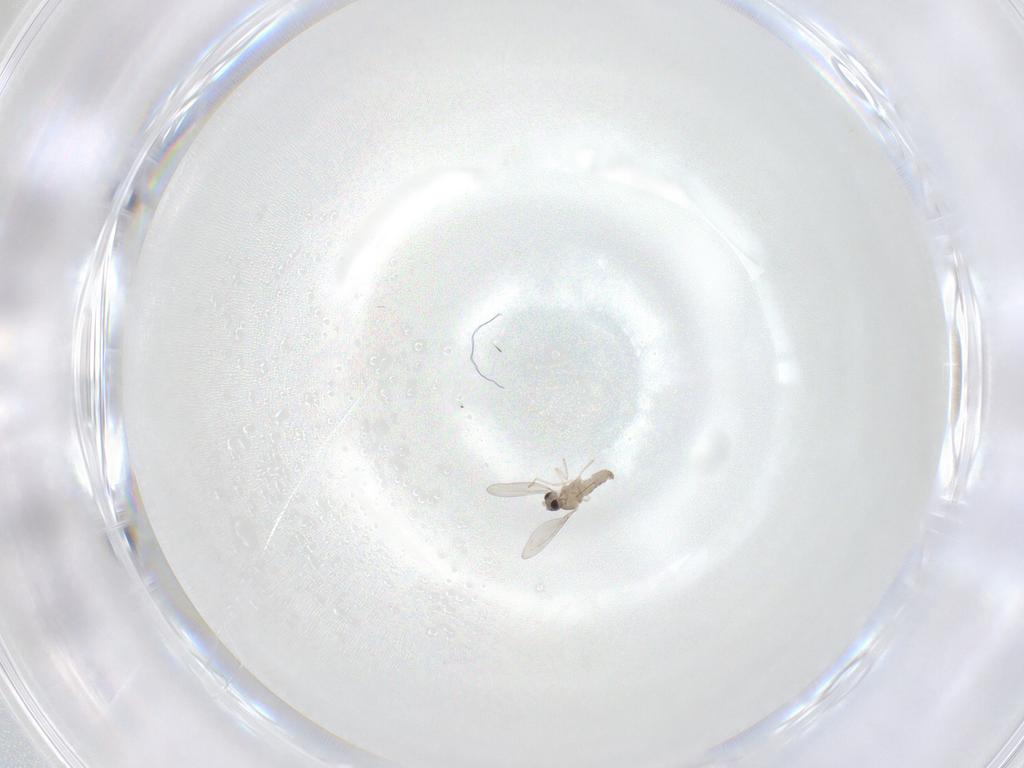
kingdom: Animalia
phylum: Arthropoda
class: Insecta
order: Diptera
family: Cecidomyiidae
